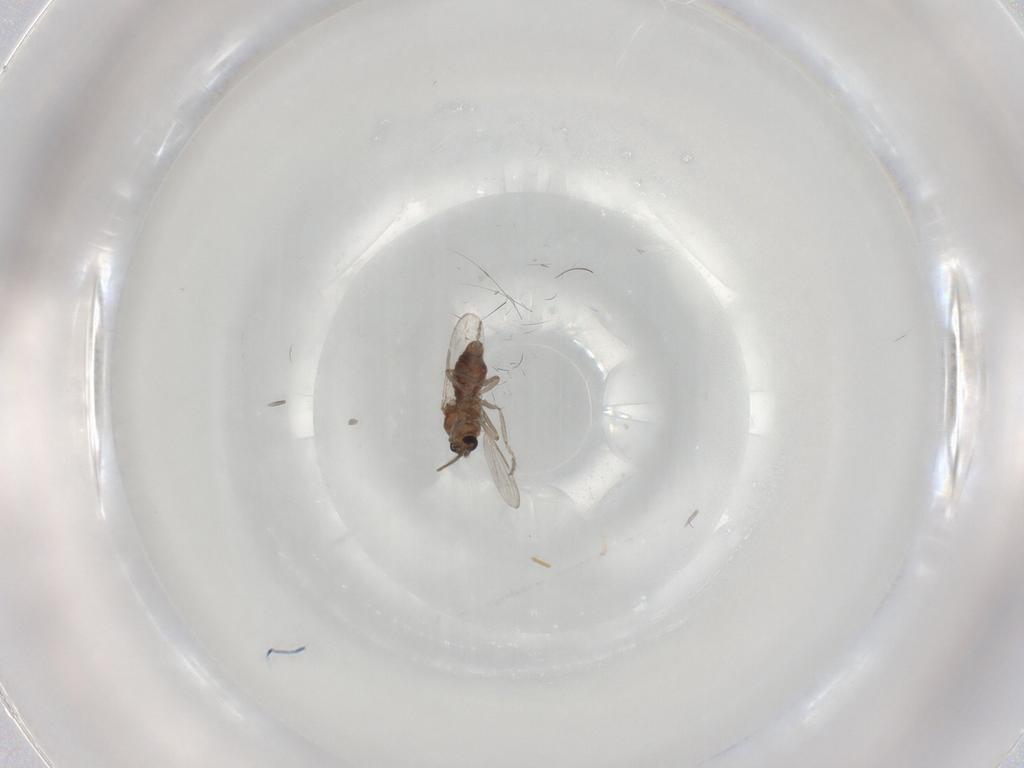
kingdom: Animalia
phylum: Arthropoda
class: Insecta
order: Diptera
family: Ceratopogonidae
